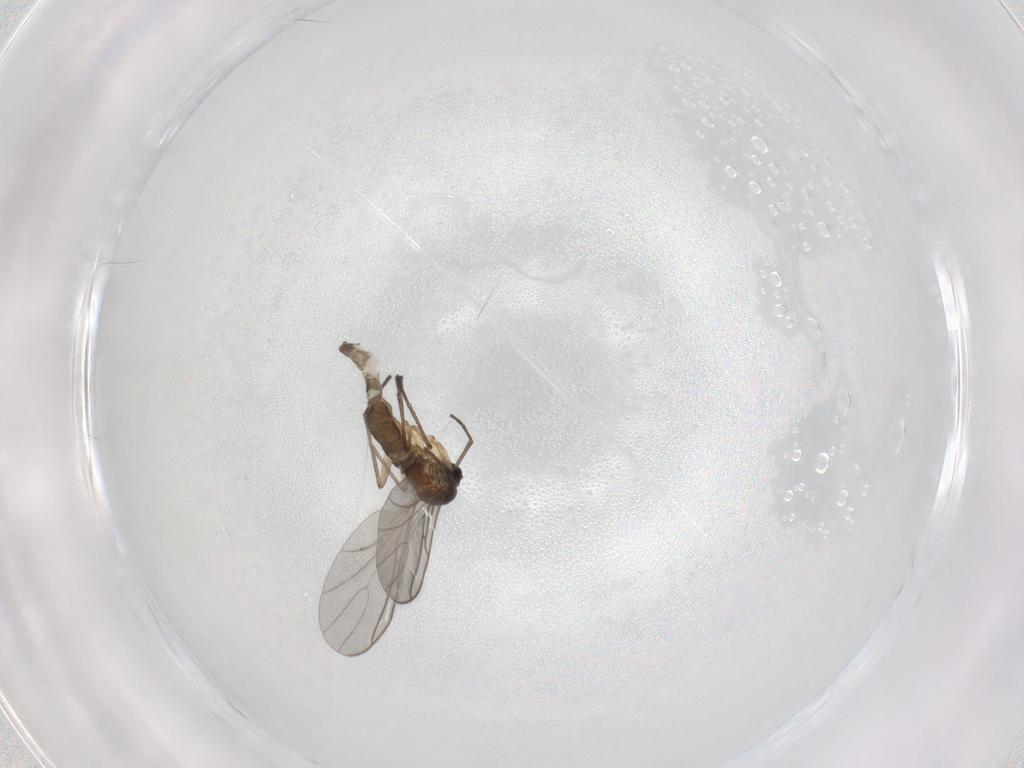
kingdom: Animalia
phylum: Arthropoda
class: Insecta
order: Diptera
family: Sciaridae
